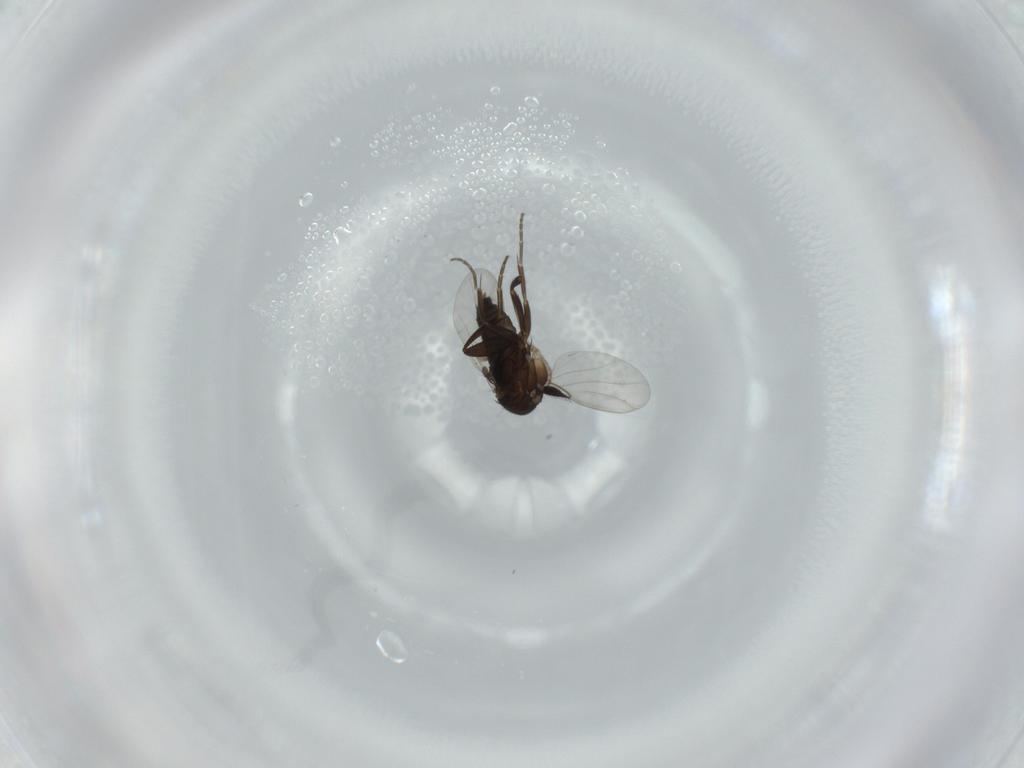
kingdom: Animalia
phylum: Arthropoda
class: Insecta
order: Diptera
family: Phoridae
